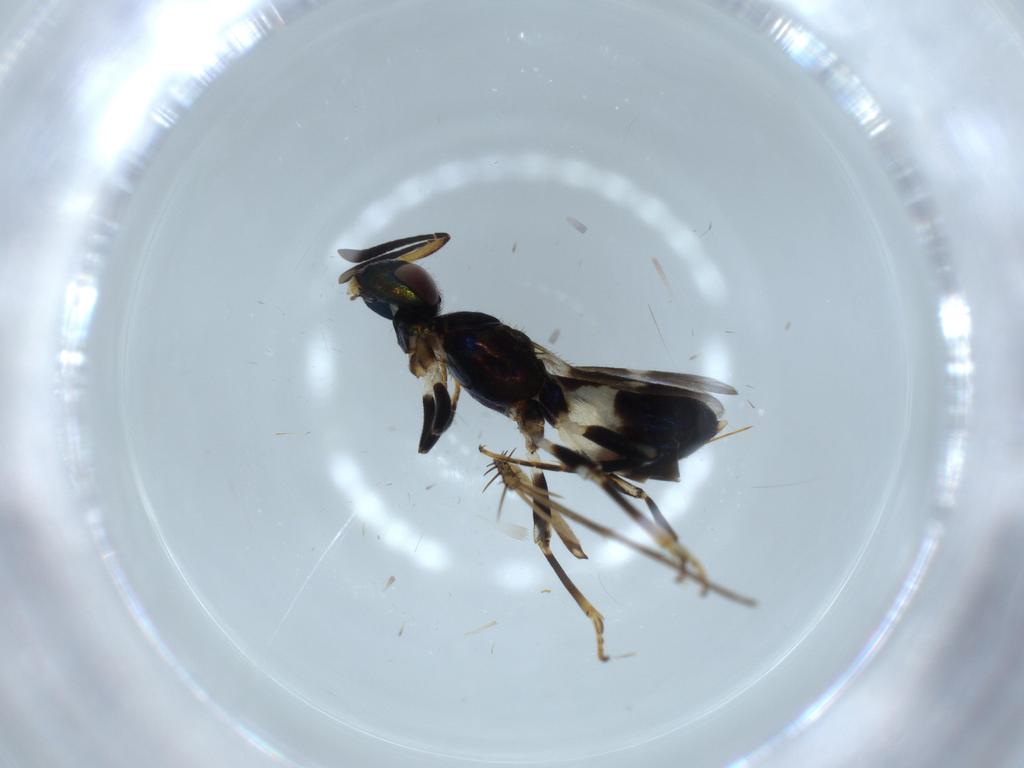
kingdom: Animalia
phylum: Arthropoda
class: Insecta
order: Hymenoptera
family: Eupelmidae
